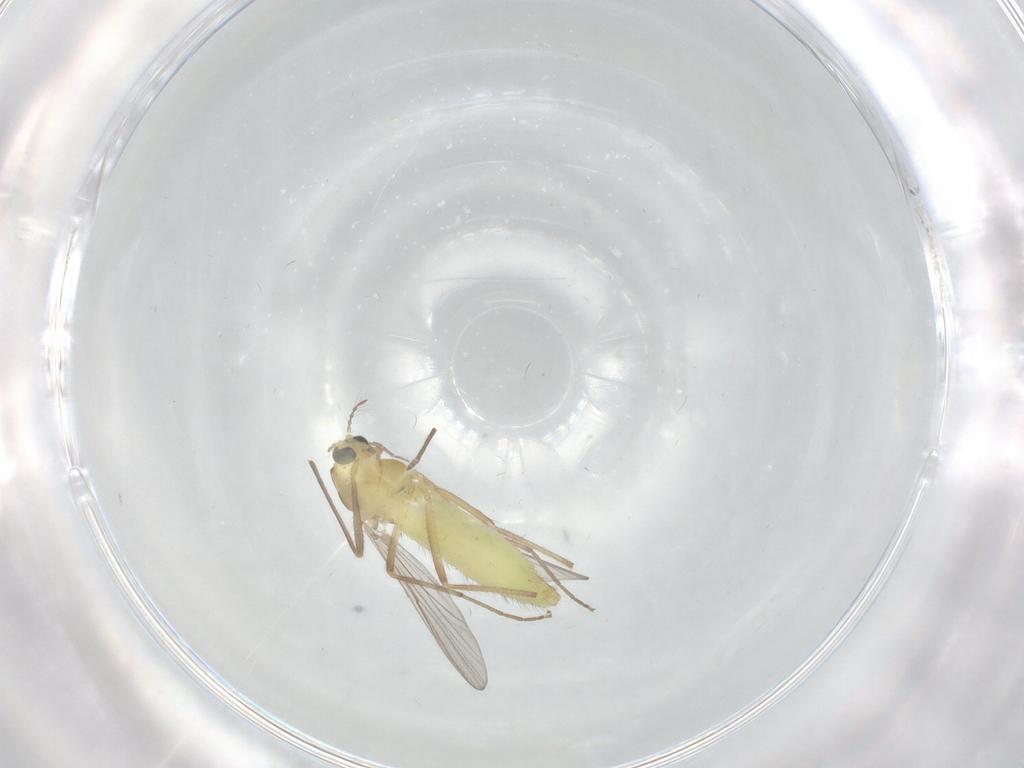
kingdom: Animalia
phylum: Arthropoda
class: Insecta
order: Diptera
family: Chironomidae
